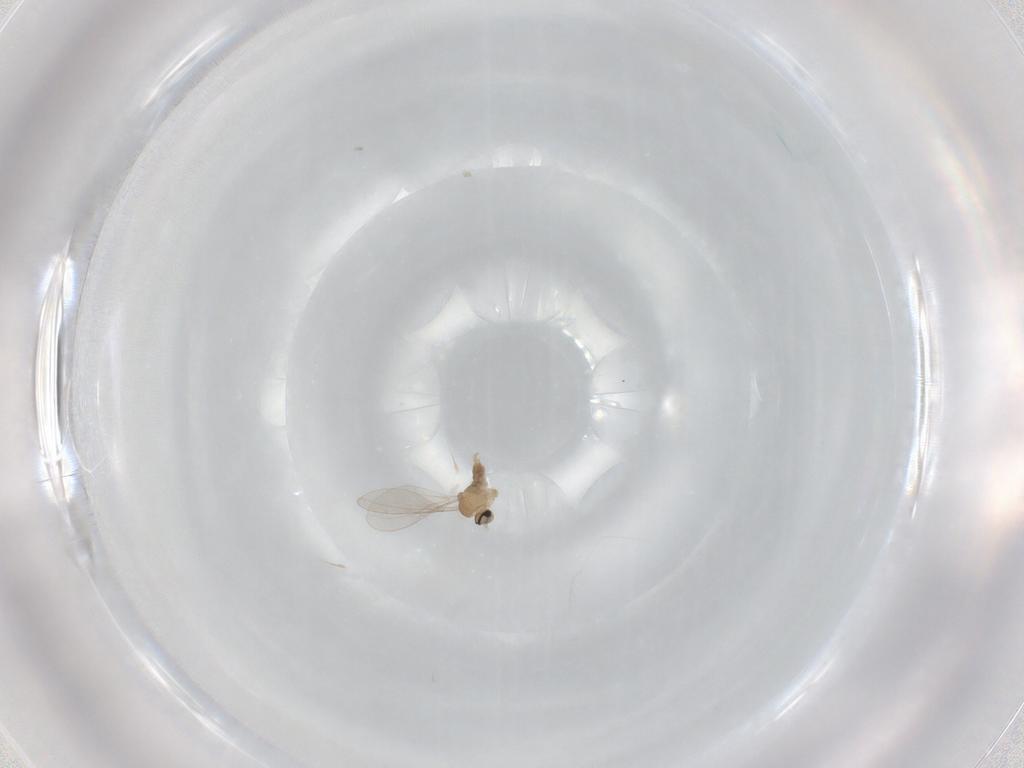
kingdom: Animalia
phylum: Arthropoda
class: Insecta
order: Diptera
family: Cecidomyiidae
